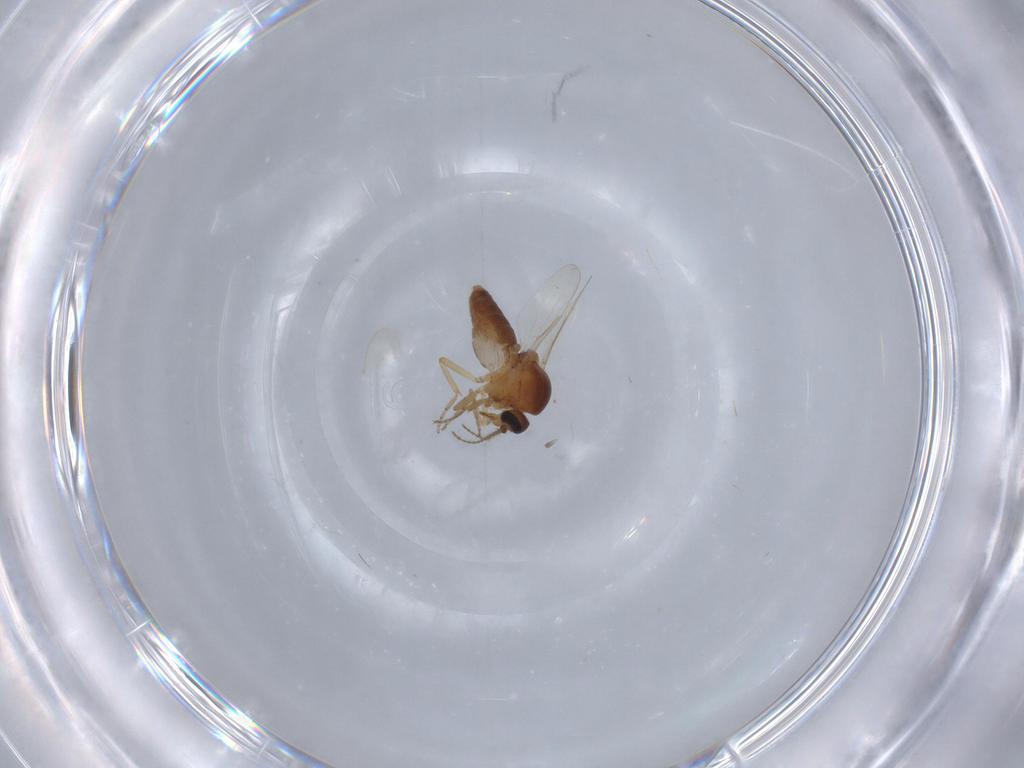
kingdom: Animalia
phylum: Arthropoda
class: Insecta
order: Diptera
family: Ceratopogonidae
